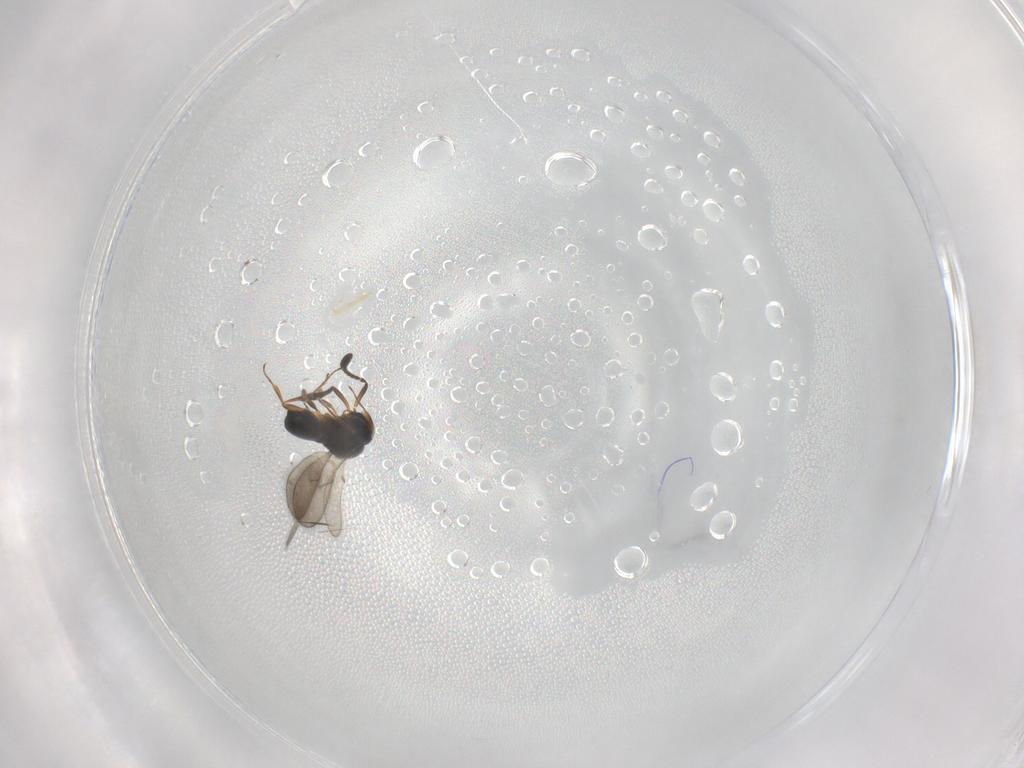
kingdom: Animalia
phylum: Arthropoda
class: Insecta
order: Hymenoptera
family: Scelionidae
